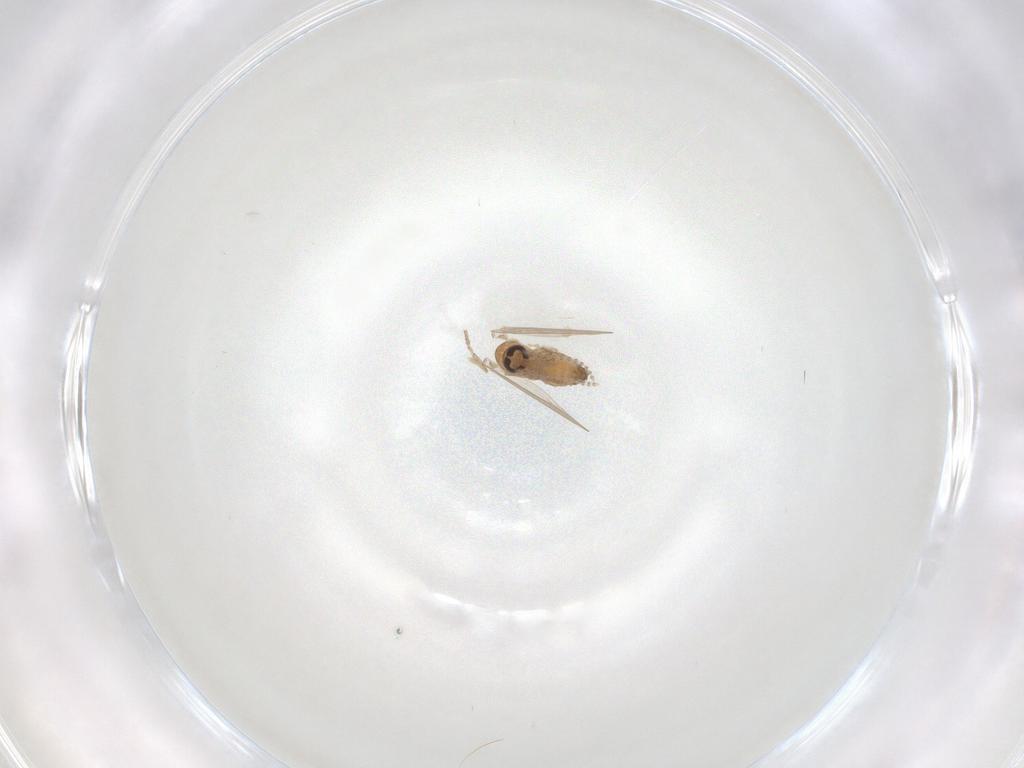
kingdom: Animalia
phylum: Arthropoda
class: Insecta
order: Diptera
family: Psychodidae
